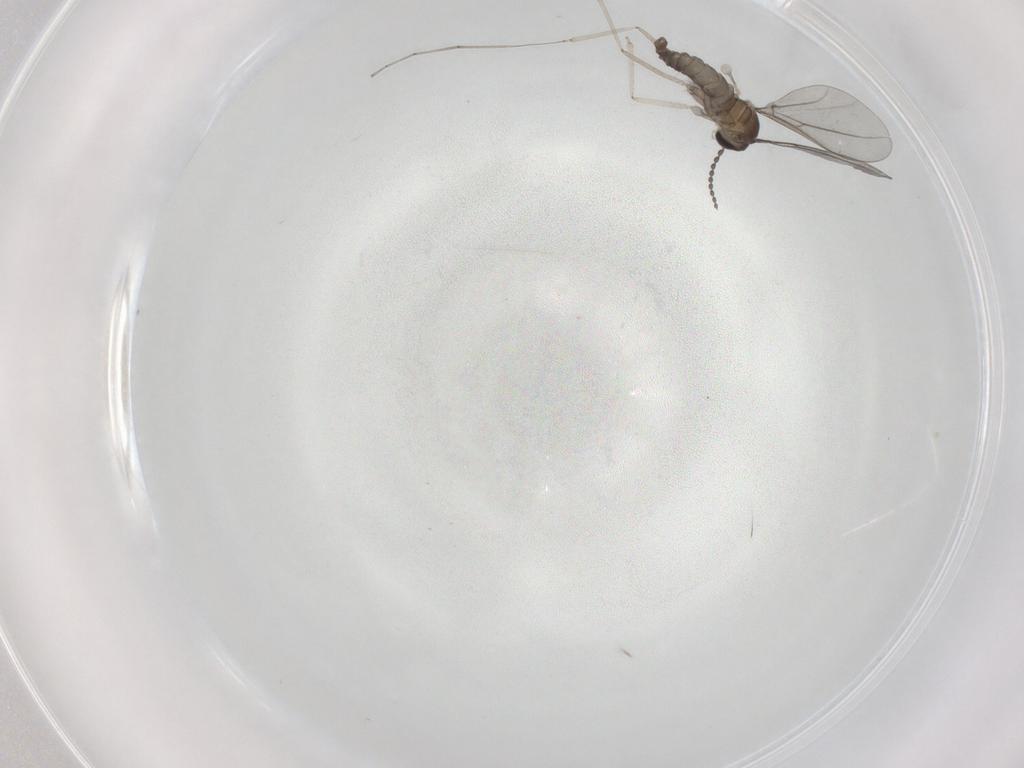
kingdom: Animalia
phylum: Arthropoda
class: Insecta
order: Diptera
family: Cecidomyiidae
